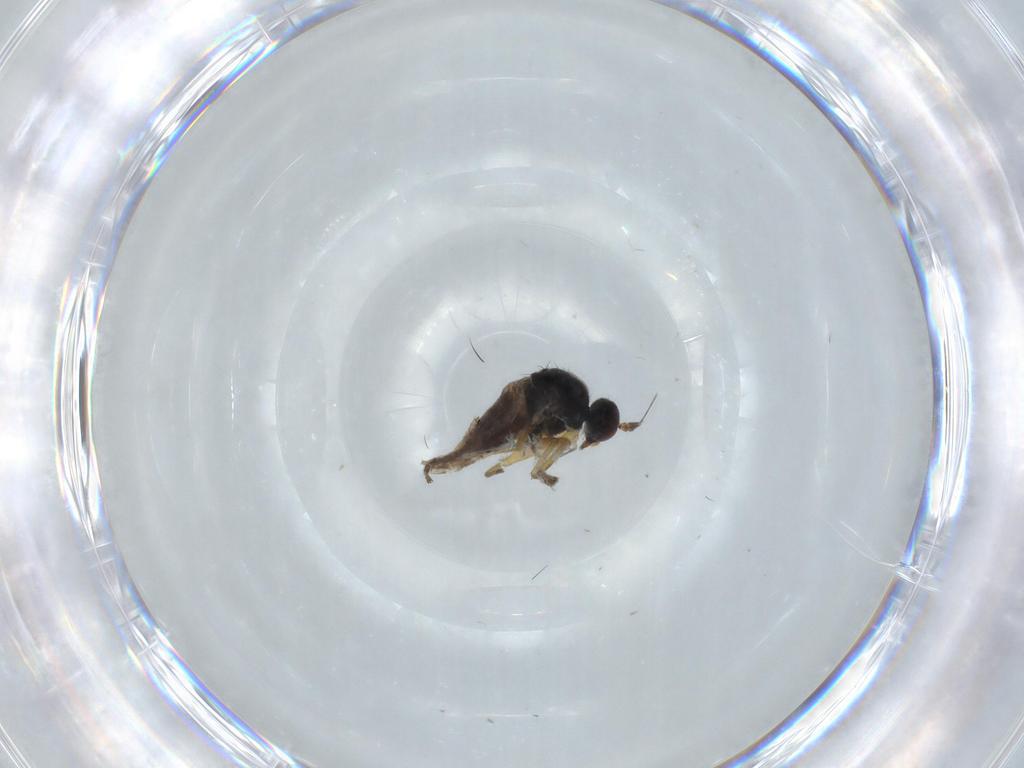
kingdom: Animalia
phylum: Arthropoda
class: Insecta
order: Diptera
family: Hybotidae
